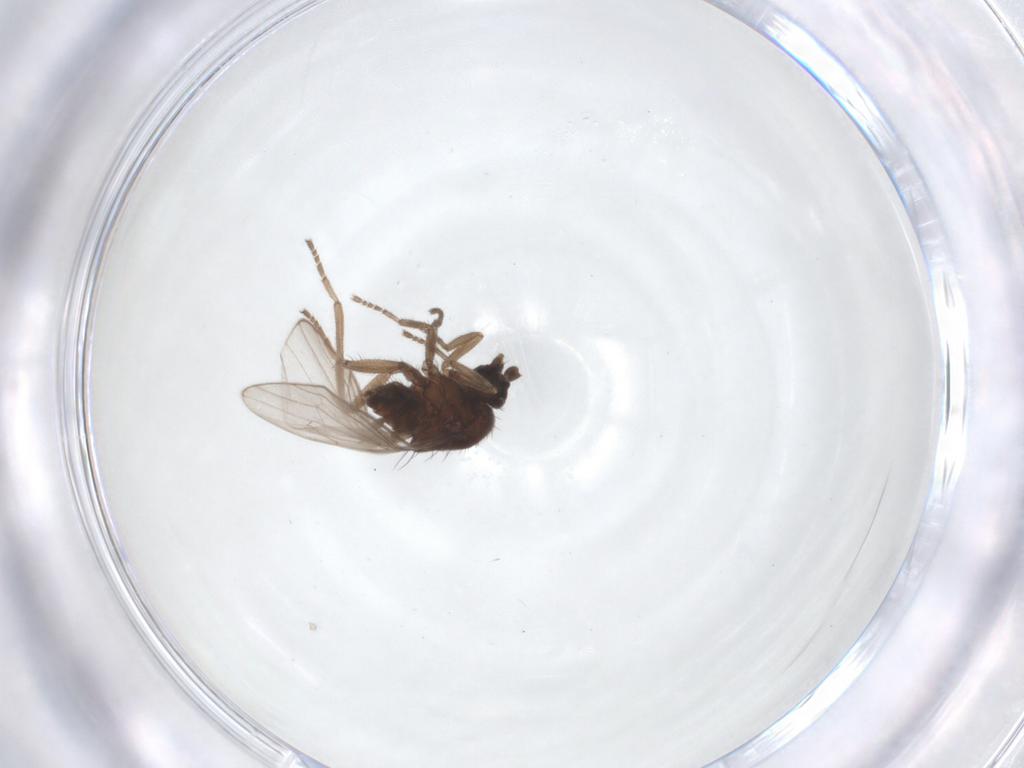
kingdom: Animalia
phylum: Arthropoda
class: Insecta
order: Diptera
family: Hybotidae
